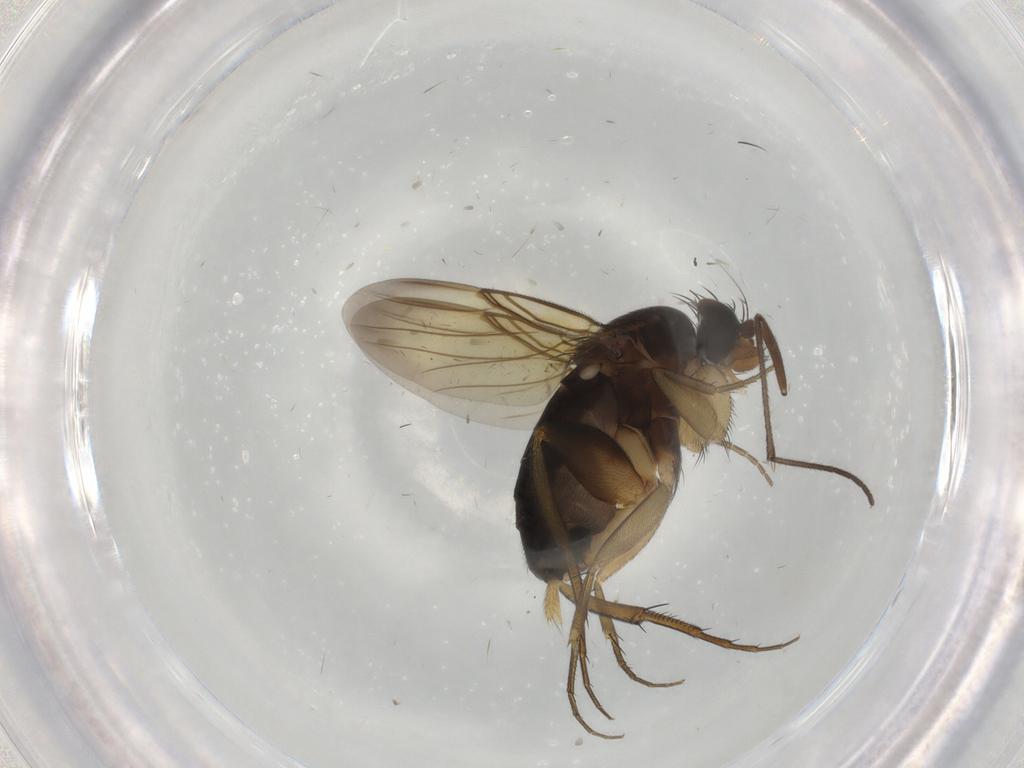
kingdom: Animalia
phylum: Arthropoda
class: Insecta
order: Diptera
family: Phoridae
